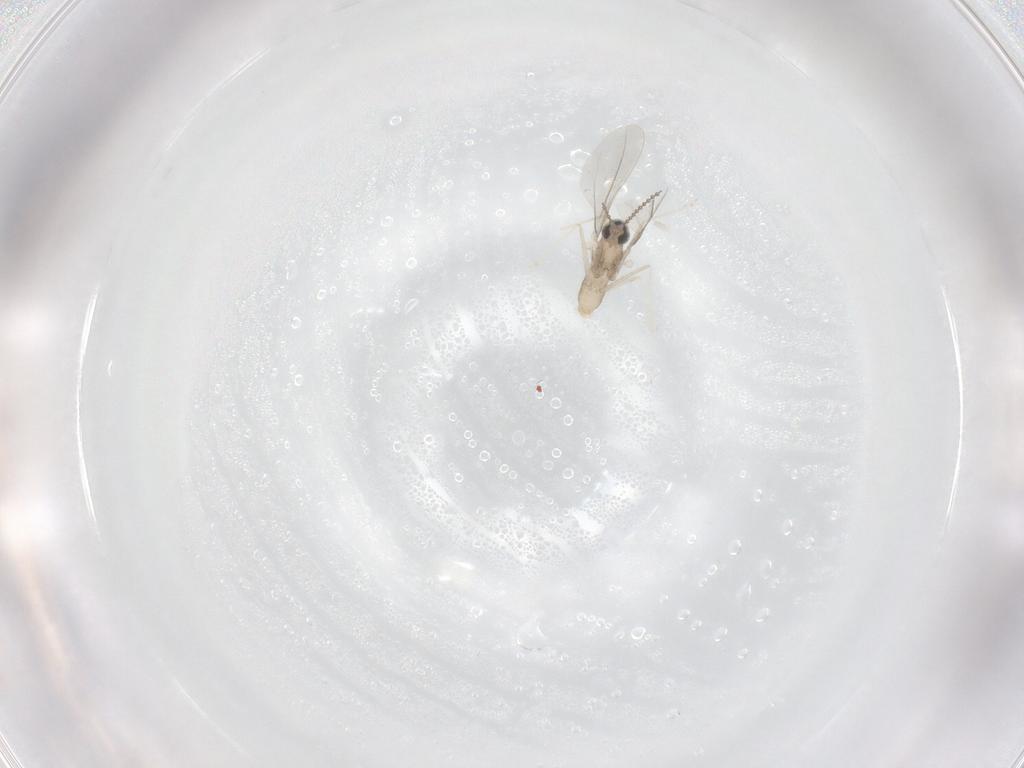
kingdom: Animalia
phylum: Arthropoda
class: Insecta
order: Diptera
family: Cecidomyiidae
